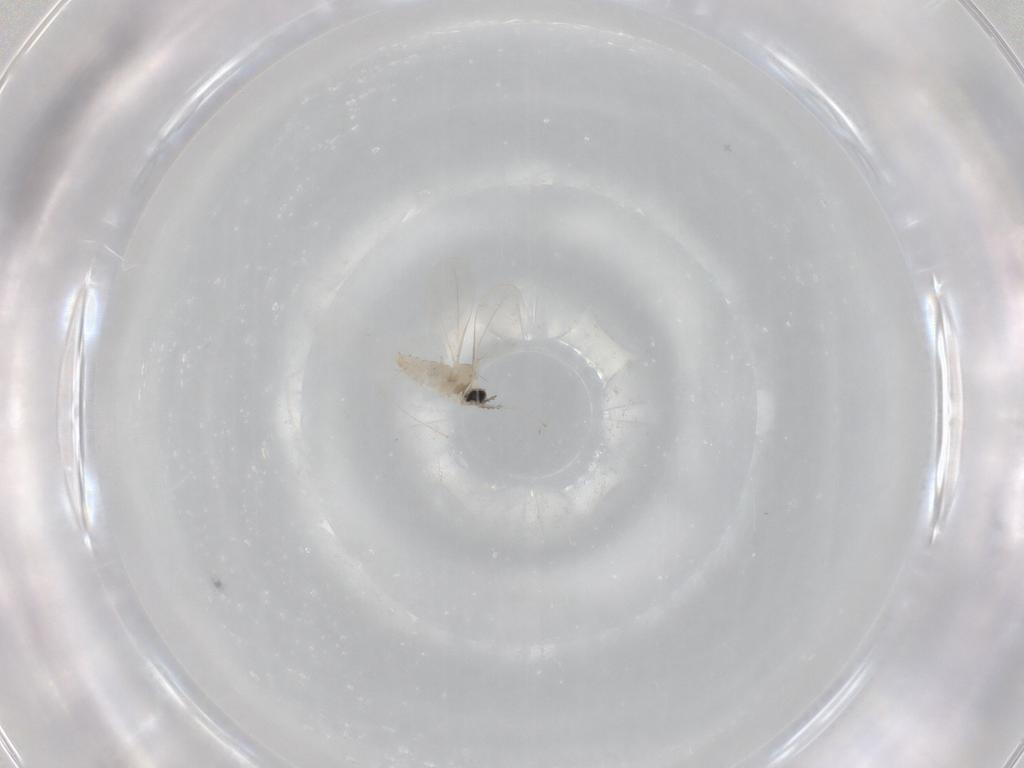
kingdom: Animalia
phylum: Arthropoda
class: Insecta
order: Diptera
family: Cecidomyiidae
